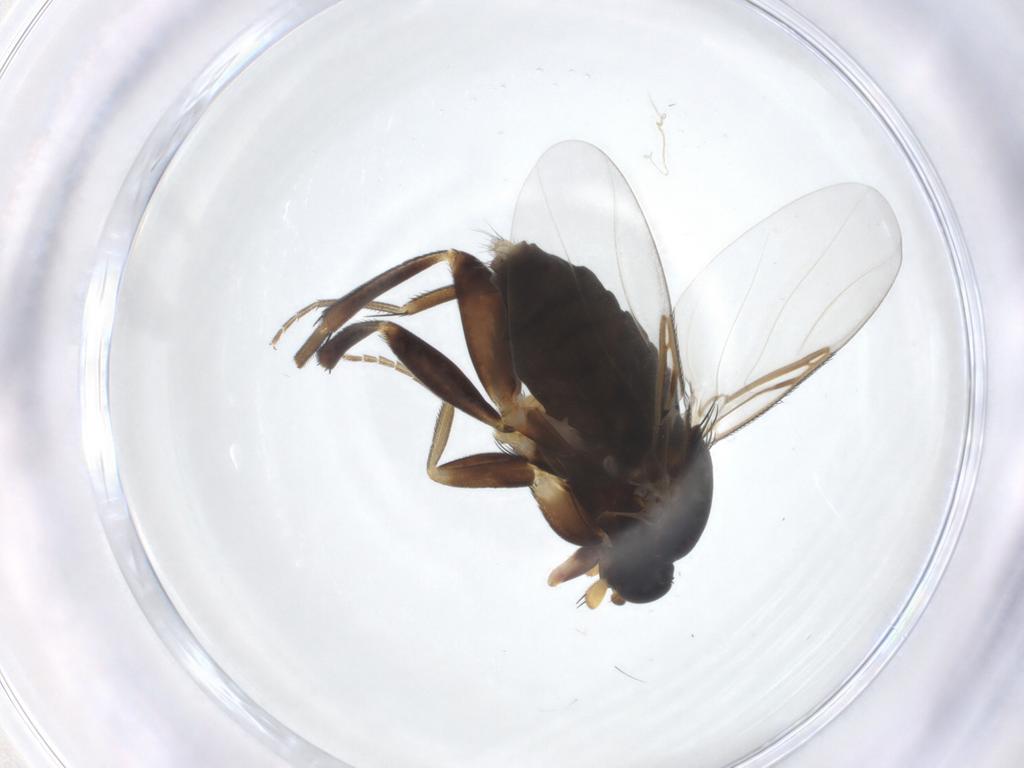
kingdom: Animalia
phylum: Arthropoda
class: Insecta
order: Diptera
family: Phoridae
